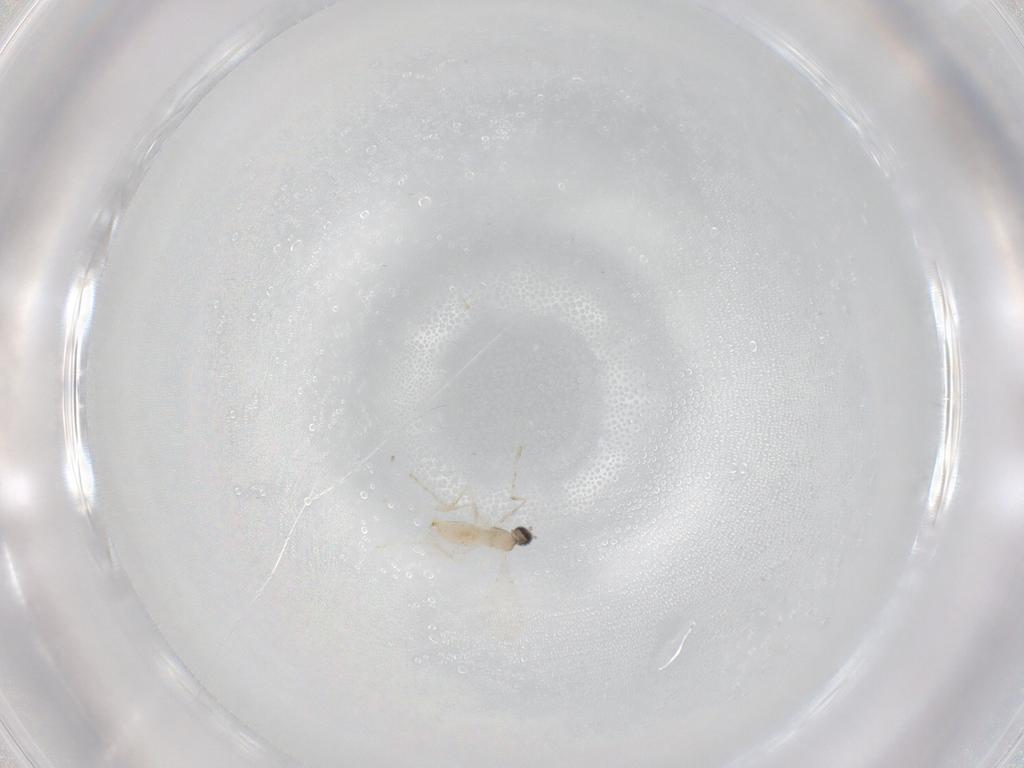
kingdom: Animalia
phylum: Arthropoda
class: Insecta
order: Diptera
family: Cecidomyiidae
